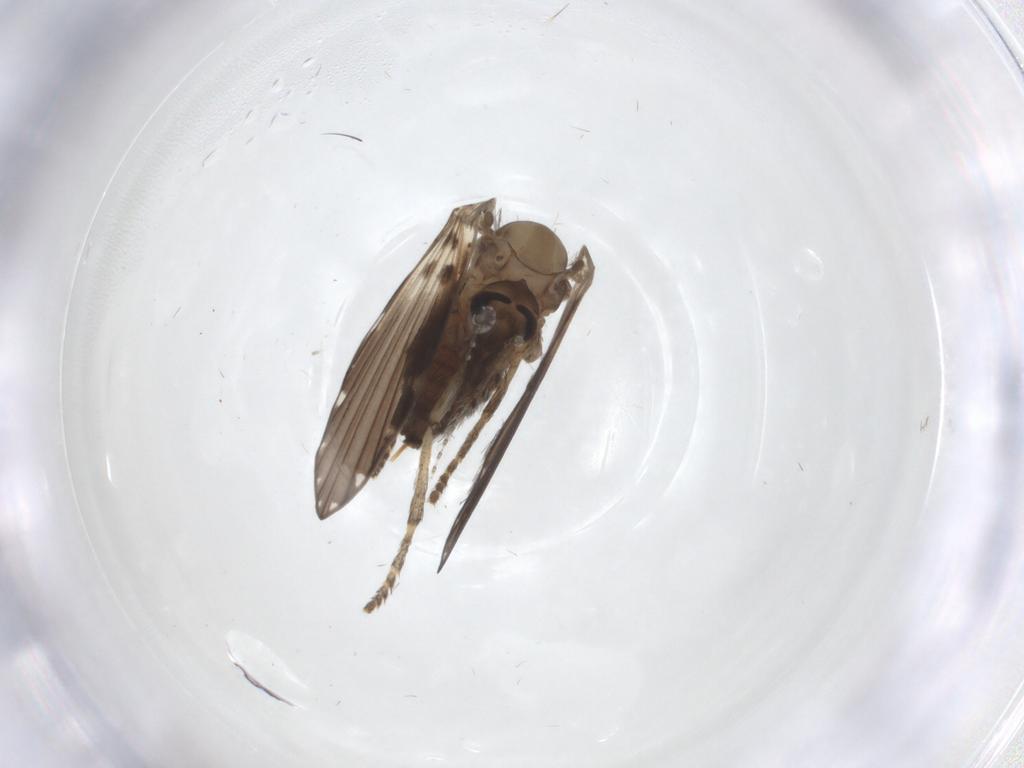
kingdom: Animalia
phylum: Arthropoda
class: Insecta
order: Diptera
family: Psychodidae
